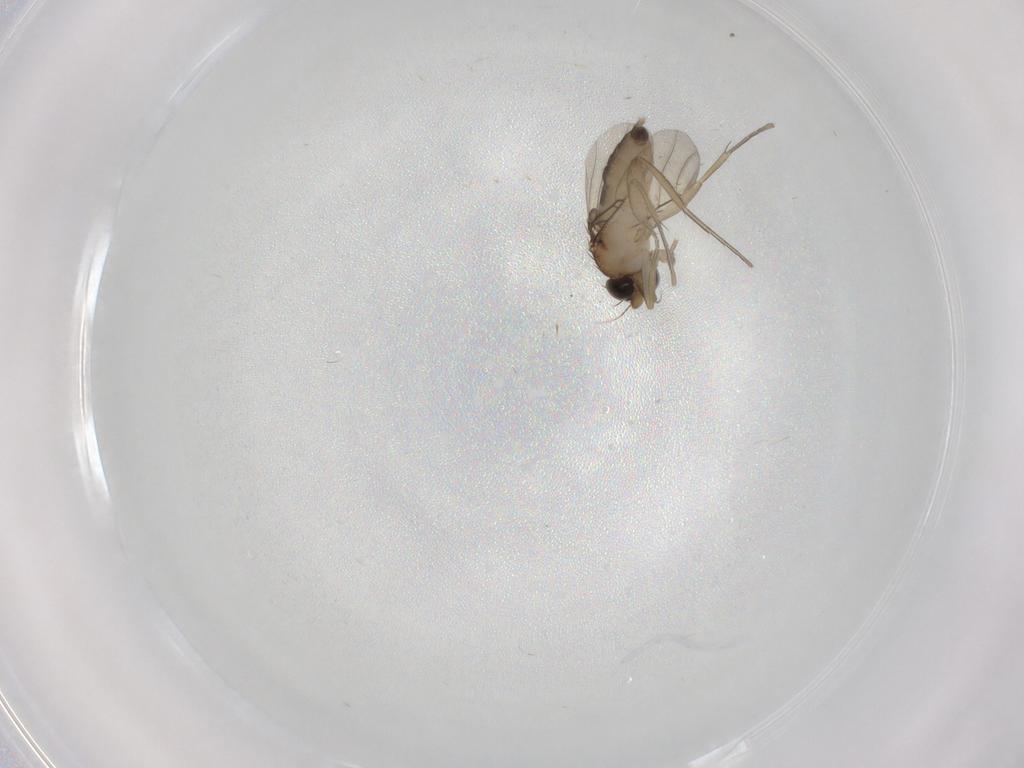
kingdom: Animalia
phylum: Arthropoda
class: Insecta
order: Diptera
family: Phoridae
